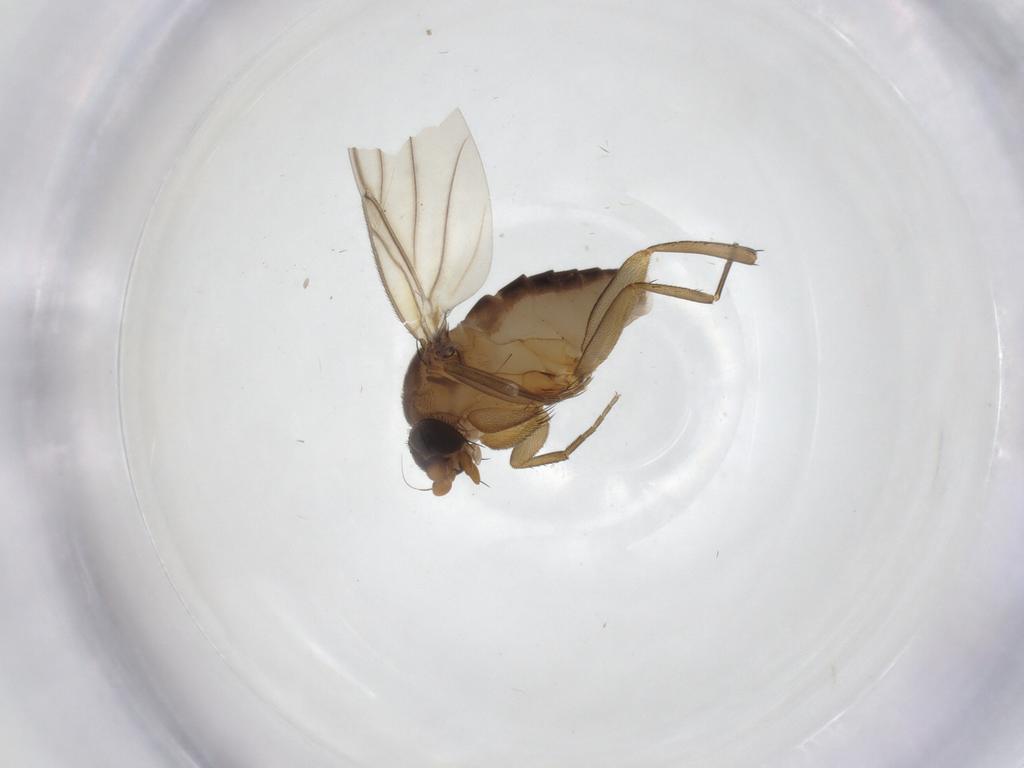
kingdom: Animalia
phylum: Arthropoda
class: Insecta
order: Diptera
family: Phoridae
